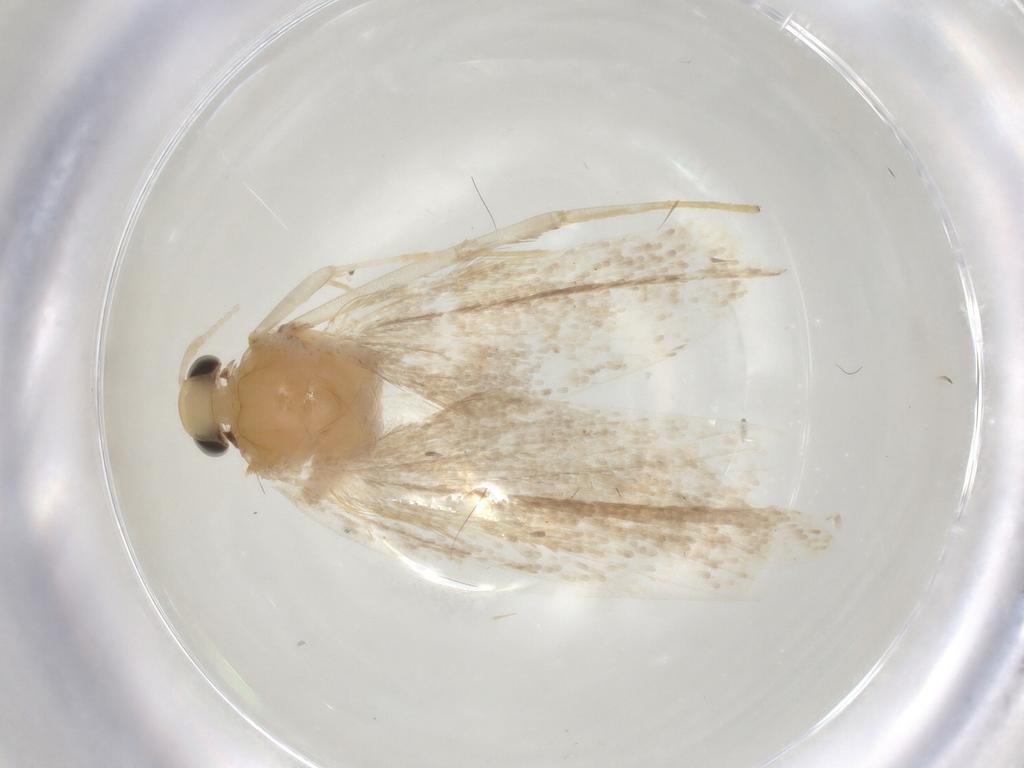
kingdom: Animalia
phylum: Arthropoda
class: Insecta
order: Lepidoptera
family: Lecithoceridae
